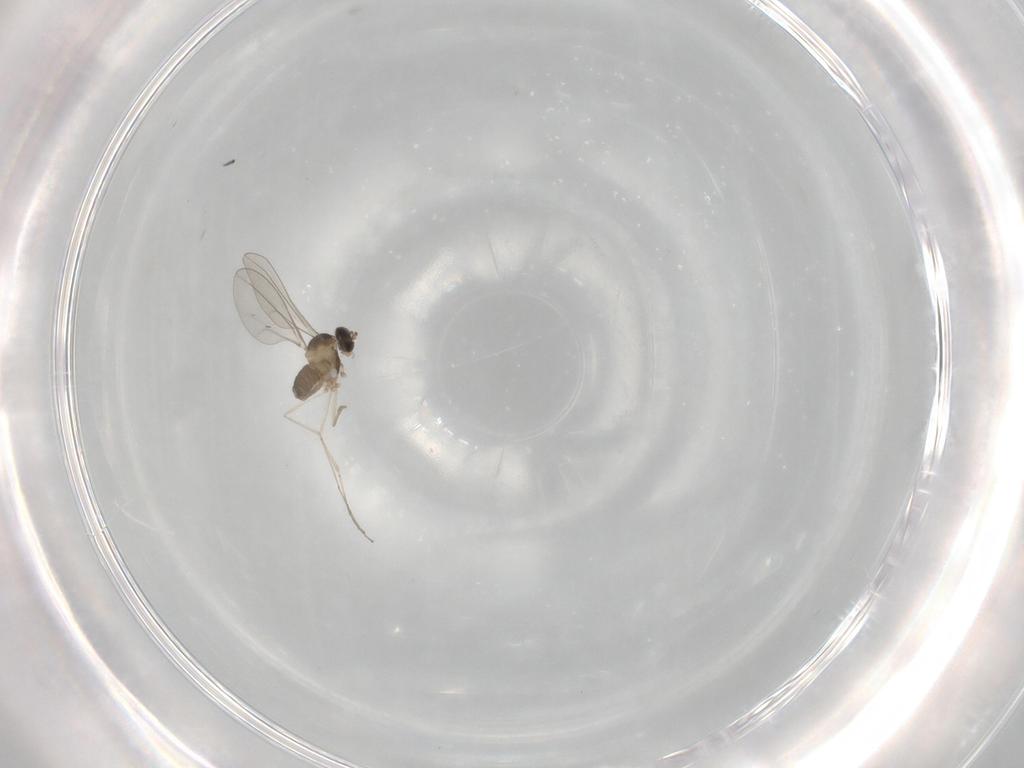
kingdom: Animalia
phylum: Arthropoda
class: Insecta
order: Diptera
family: Cecidomyiidae
